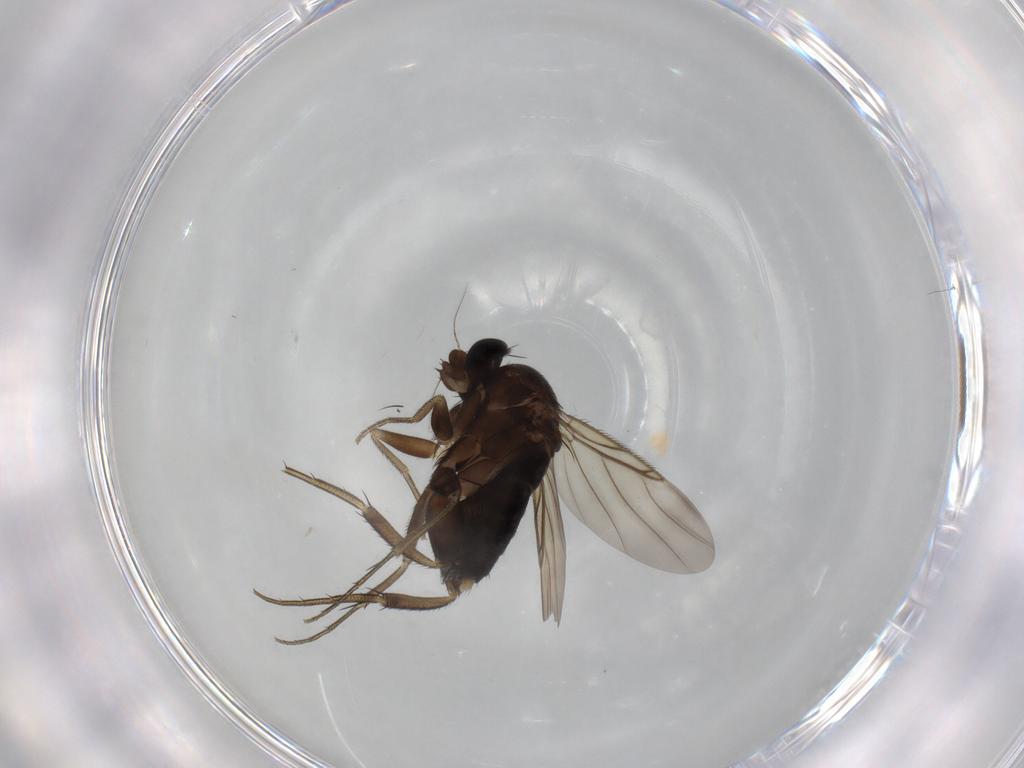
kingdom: Animalia
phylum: Arthropoda
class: Insecta
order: Diptera
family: Phoridae
